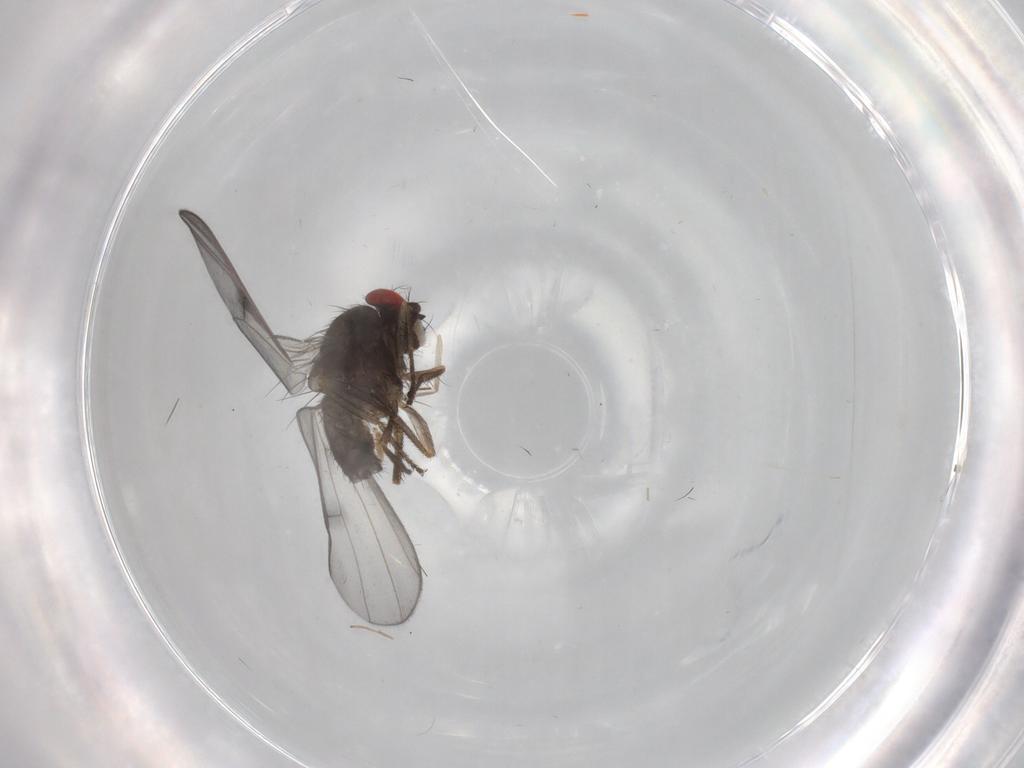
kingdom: Animalia
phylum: Arthropoda
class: Insecta
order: Diptera
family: Drosophilidae
